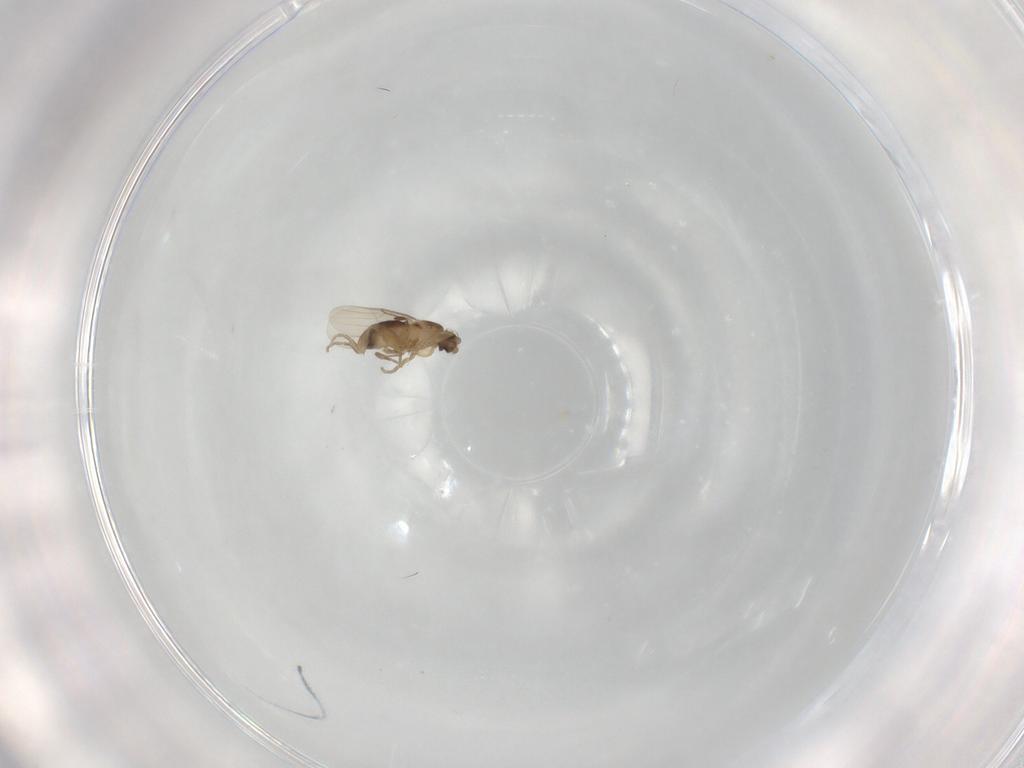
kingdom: Animalia
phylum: Arthropoda
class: Insecta
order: Diptera
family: Phoridae
